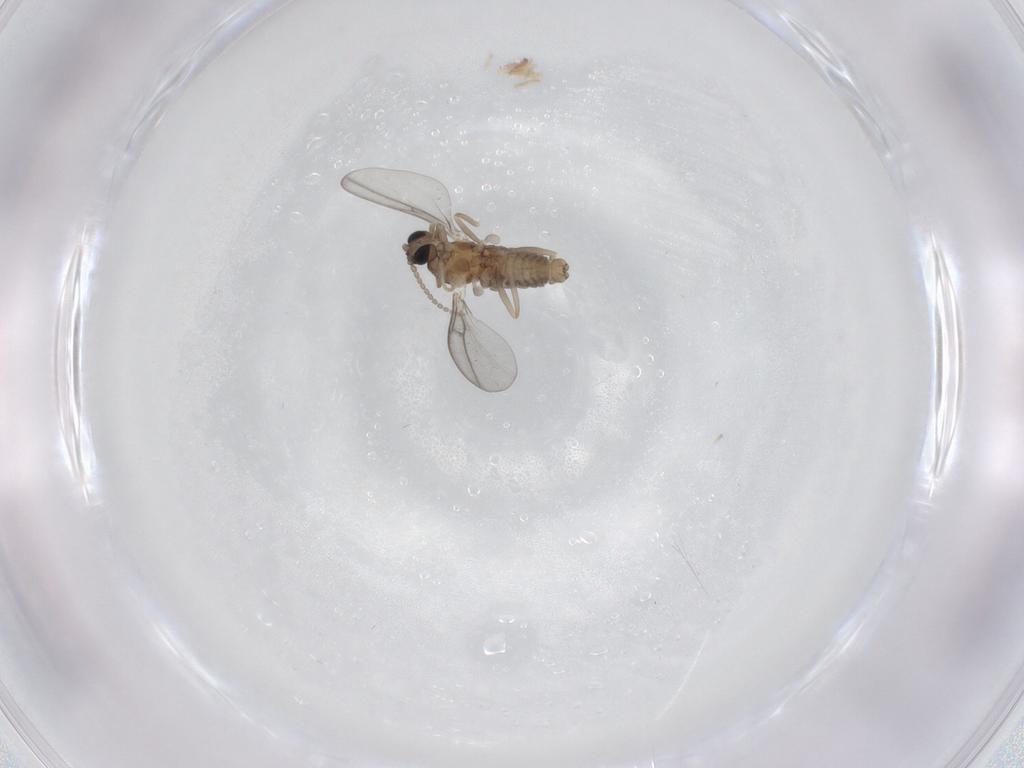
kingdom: Animalia
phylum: Arthropoda
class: Insecta
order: Diptera
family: Cecidomyiidae
